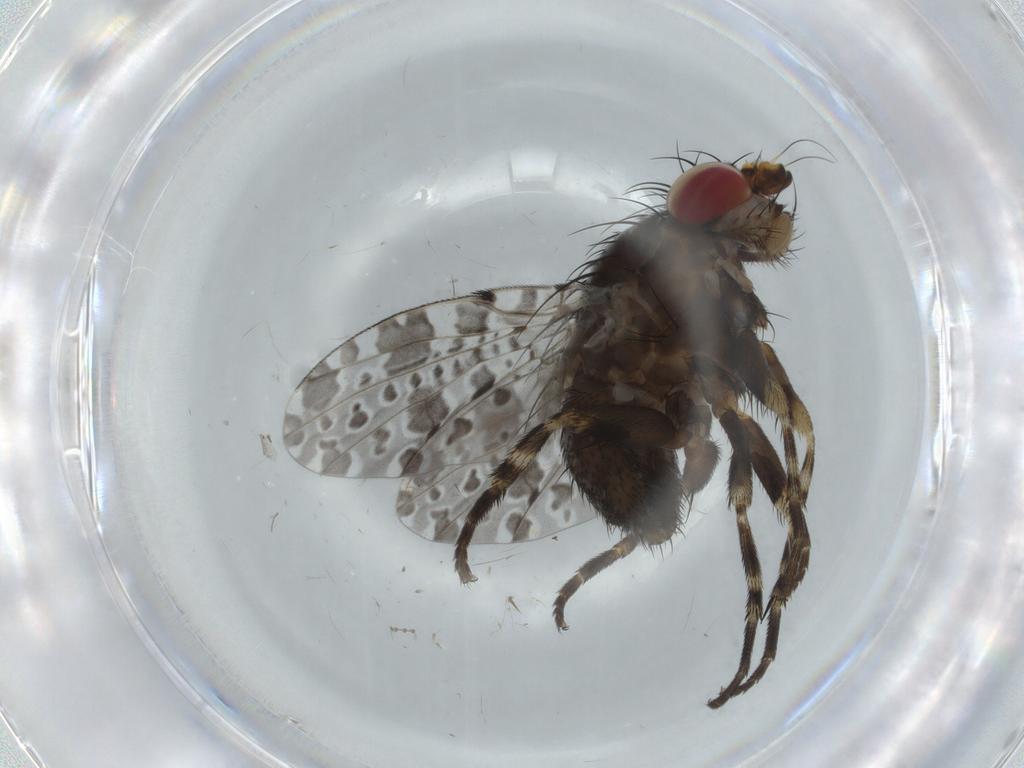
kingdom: Animalia
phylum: Arthropoda
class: Insecta
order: Diptera
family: Odiniidae
